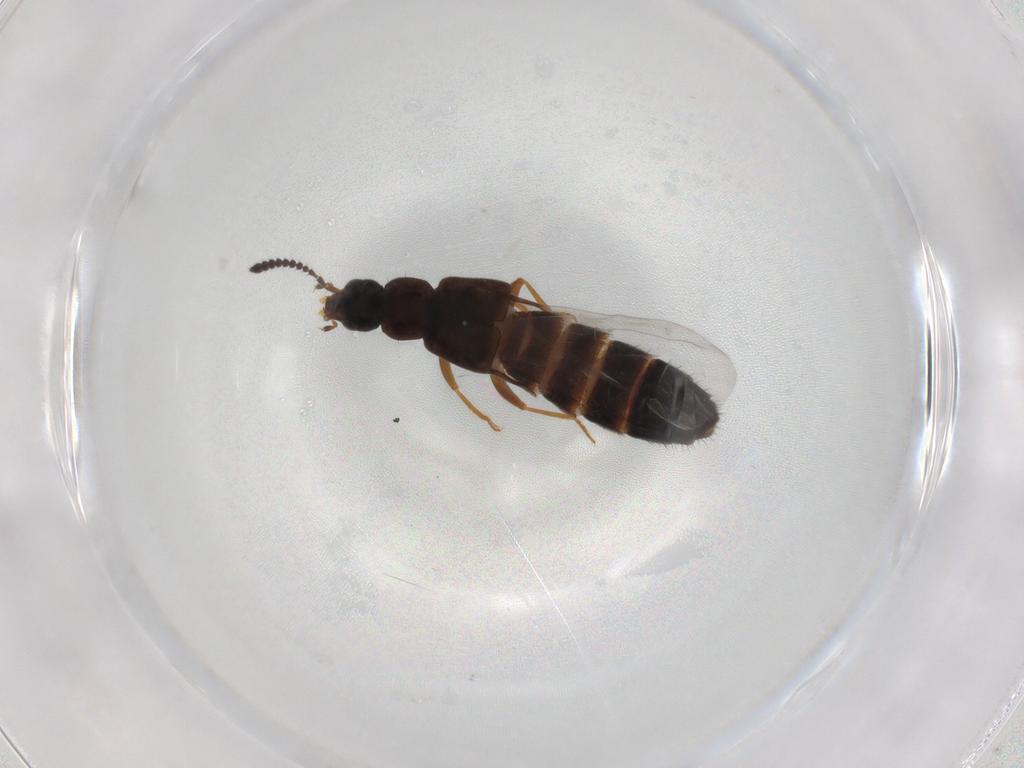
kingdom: Animalia
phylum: Arthropoda
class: Insecta
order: Coleoptera
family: Staphylinidae
